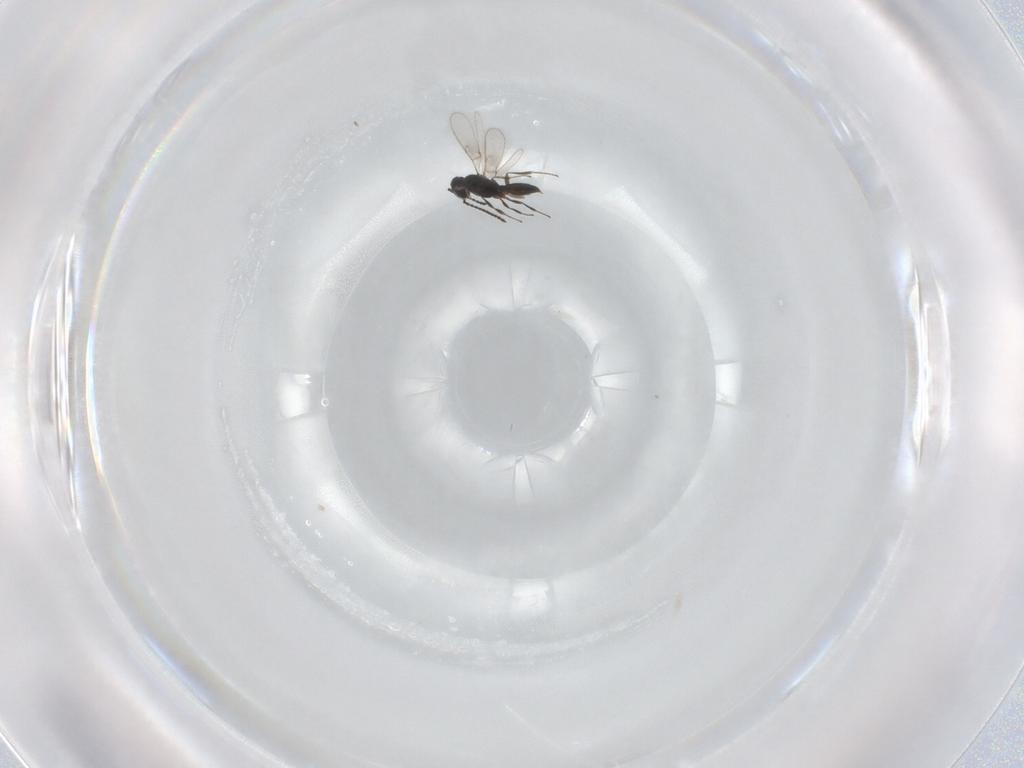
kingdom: Animalia
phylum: Arthropoda
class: Insecta
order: Hymenoptera
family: Scelionidae
